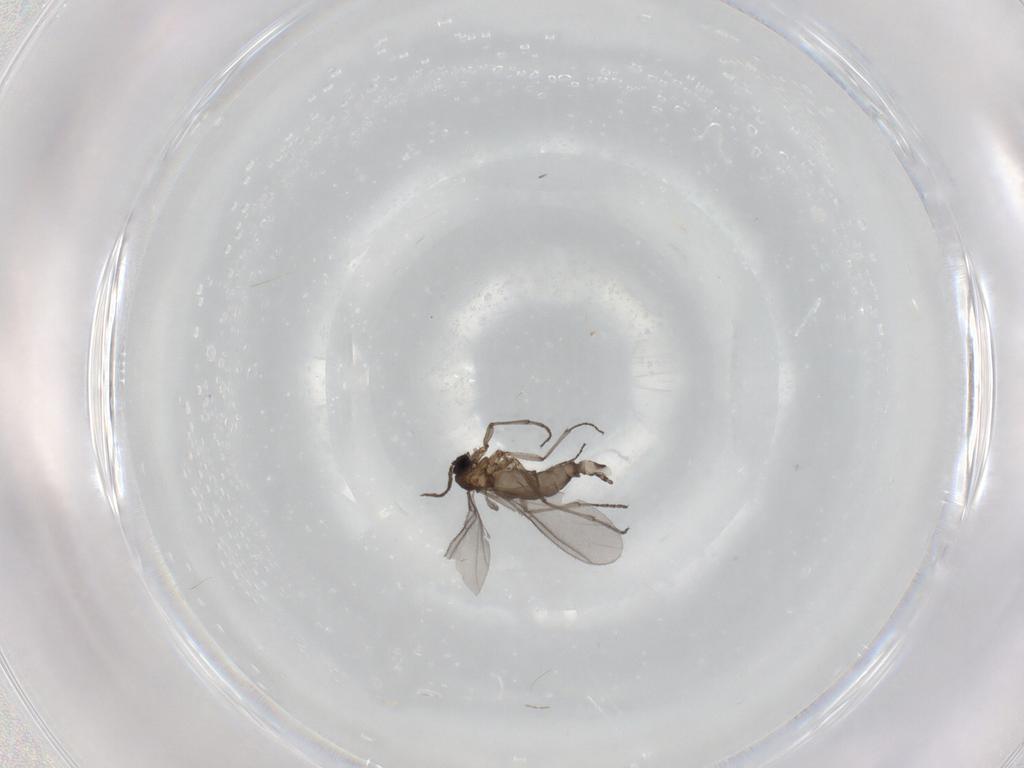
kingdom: Animalia
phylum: Arthropoda
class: Insecta
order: Diptera
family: Sciaridae
